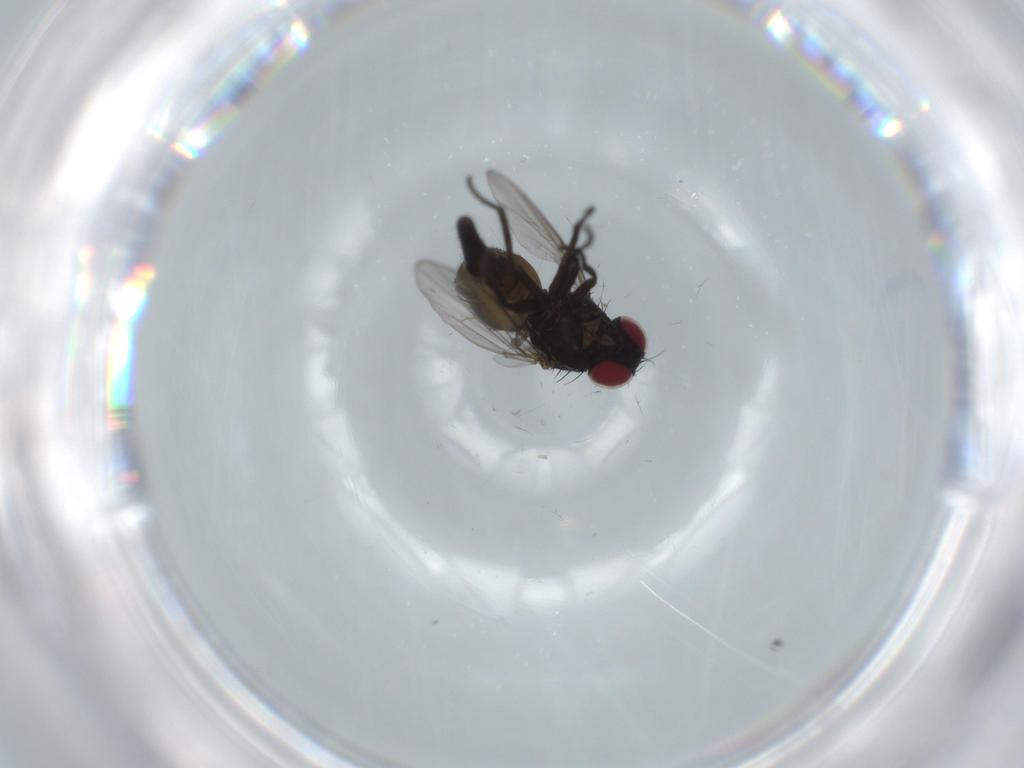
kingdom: Animalia
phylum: Arthropoda
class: Insecta
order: Diptera
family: Agromyzidae
